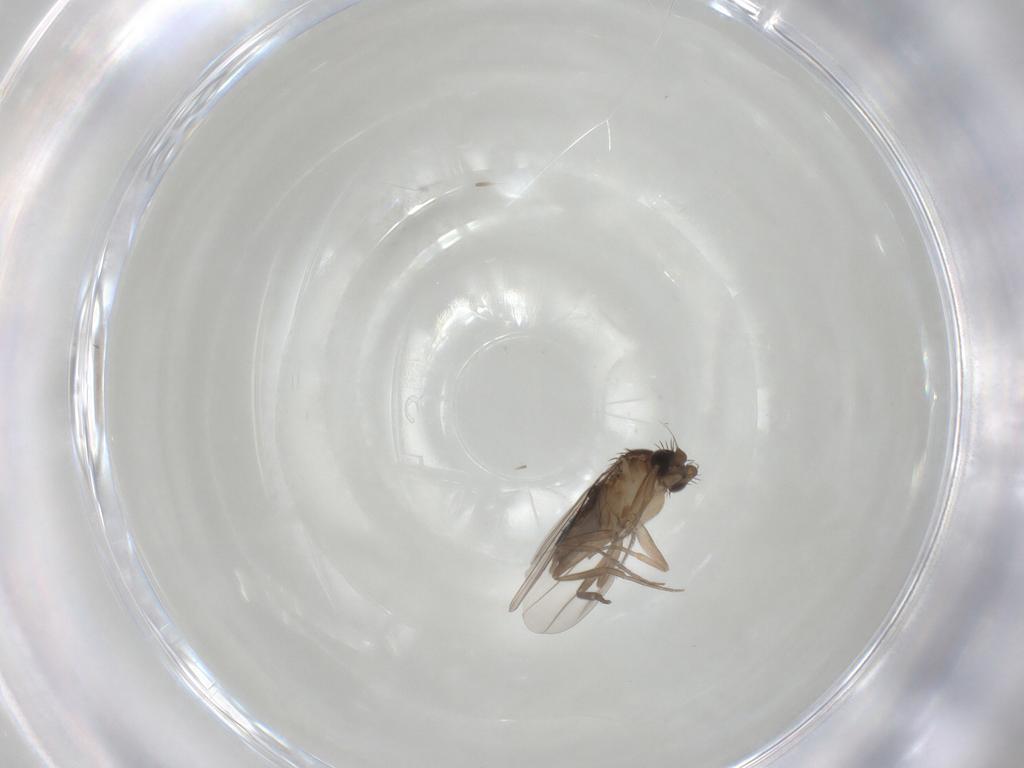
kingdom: Animalia
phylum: Arthropoda
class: Insecta
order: Diptera
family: Phoridae
